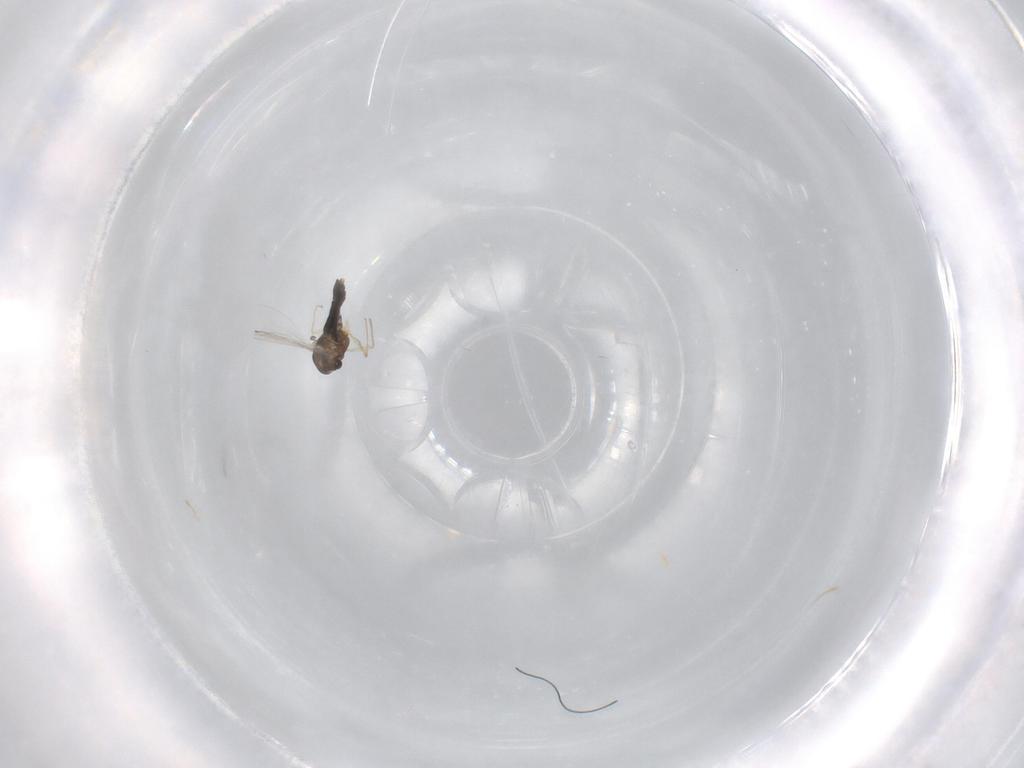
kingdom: Animalia
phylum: Arthropoda
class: Insecta
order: Diptera
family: Chironomidae
